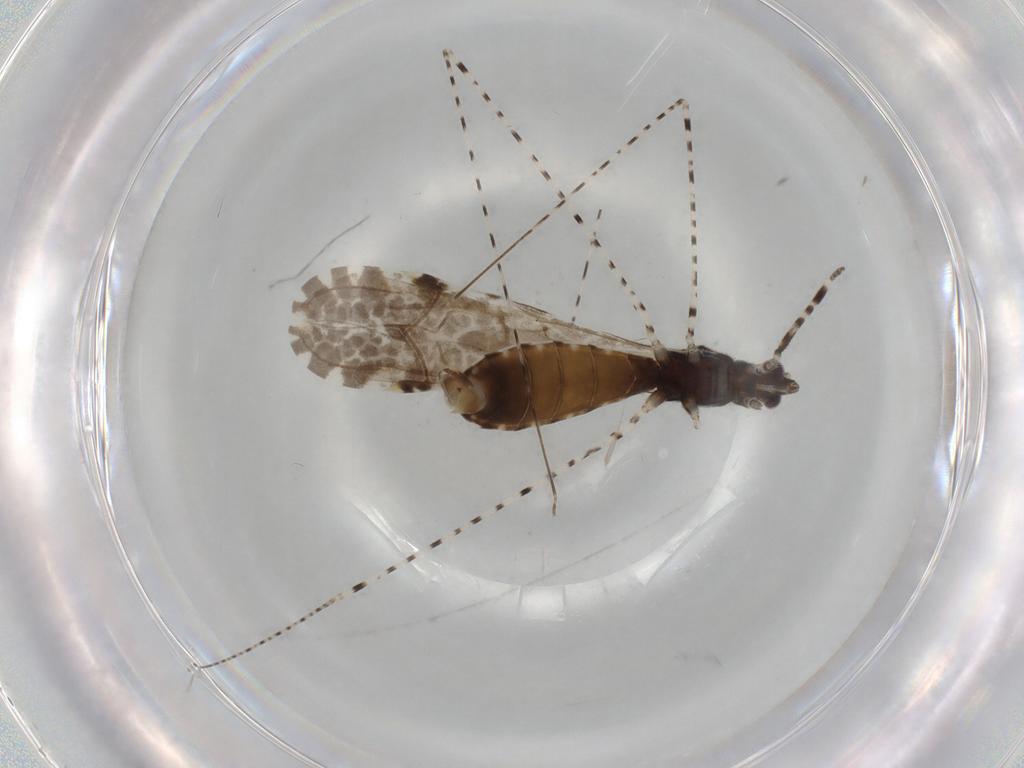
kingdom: Animalia
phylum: Arthropoda
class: Insecta
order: Hemiptera
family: Reduviidae
